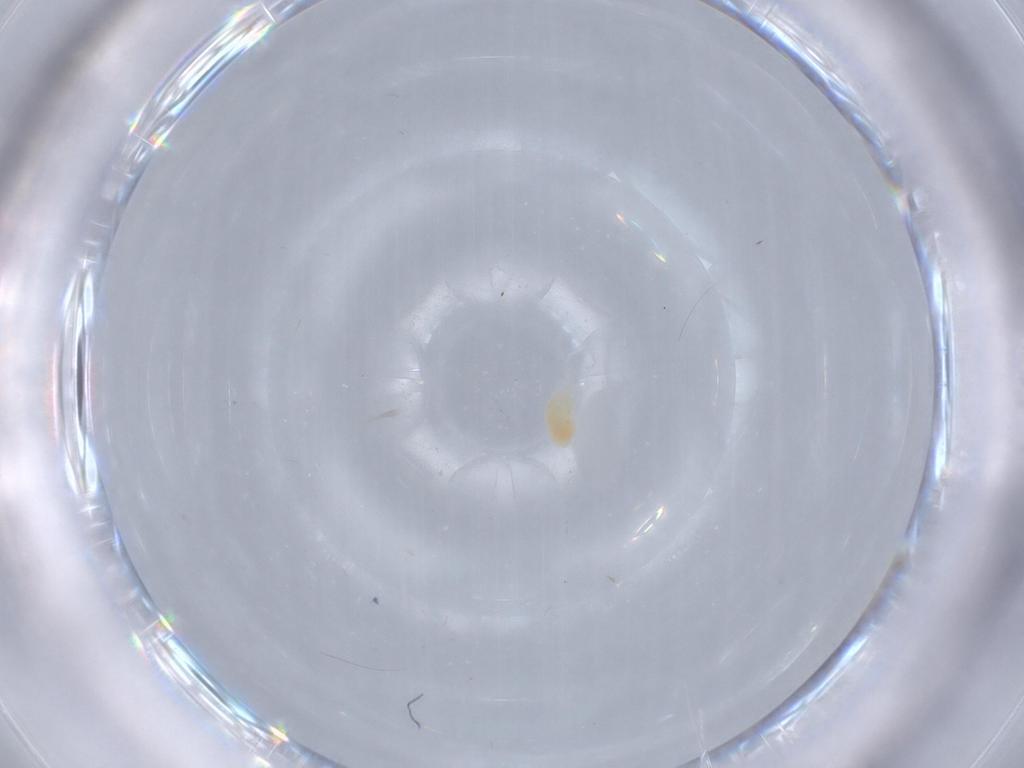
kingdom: Animalia
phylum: Arthropoda
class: Arachnida
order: Trombidiformes
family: Eupodidae
